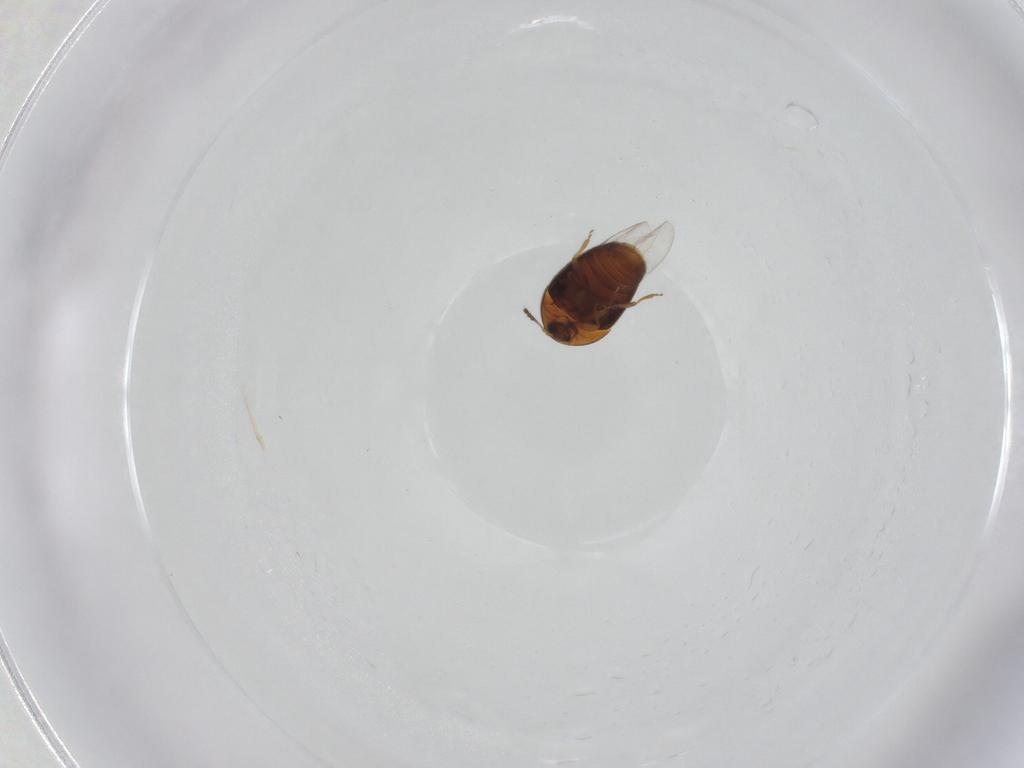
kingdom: Animalia
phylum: Arthropoda
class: Insecta
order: Coleoptera
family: Corylophidae
